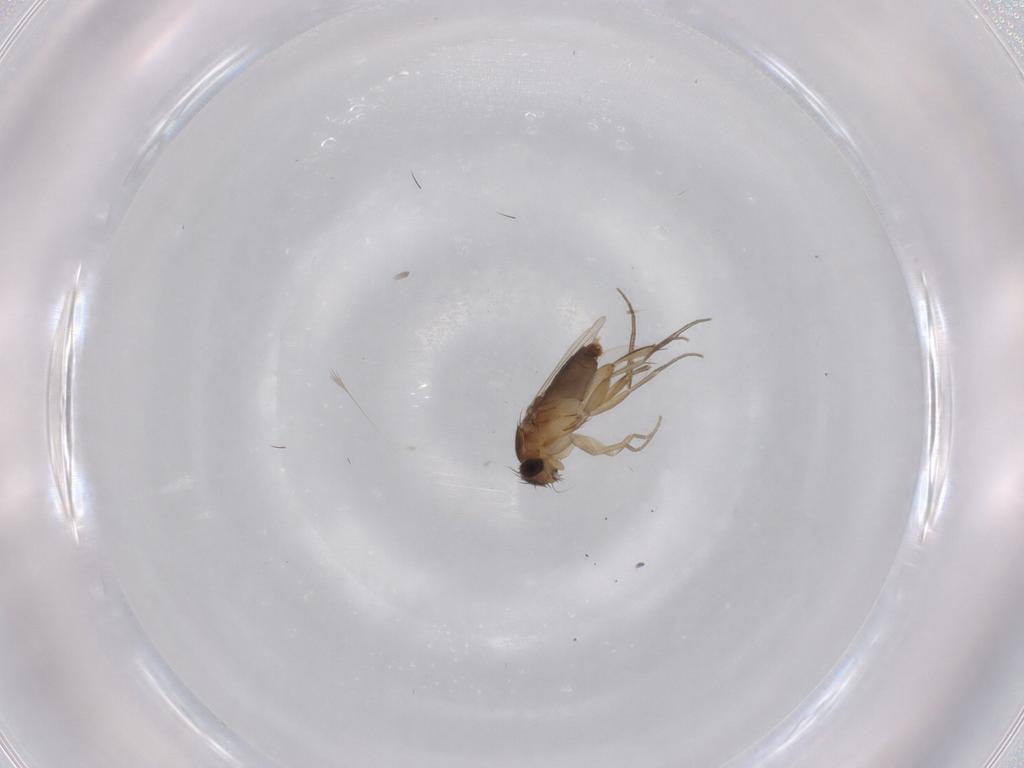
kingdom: Animalia
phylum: Arthropoda
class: Insecta
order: Diptera
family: Phoridae
